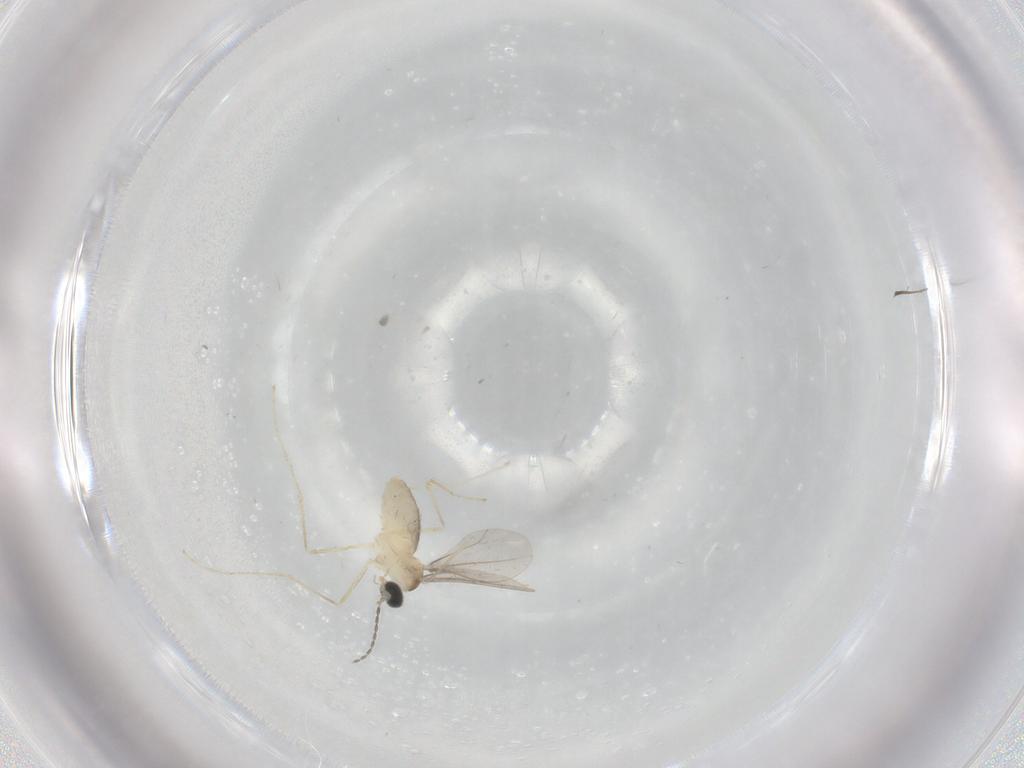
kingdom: Animalia
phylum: Arthropoda
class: Insecta
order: Diptera
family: Cecidomyiidae
